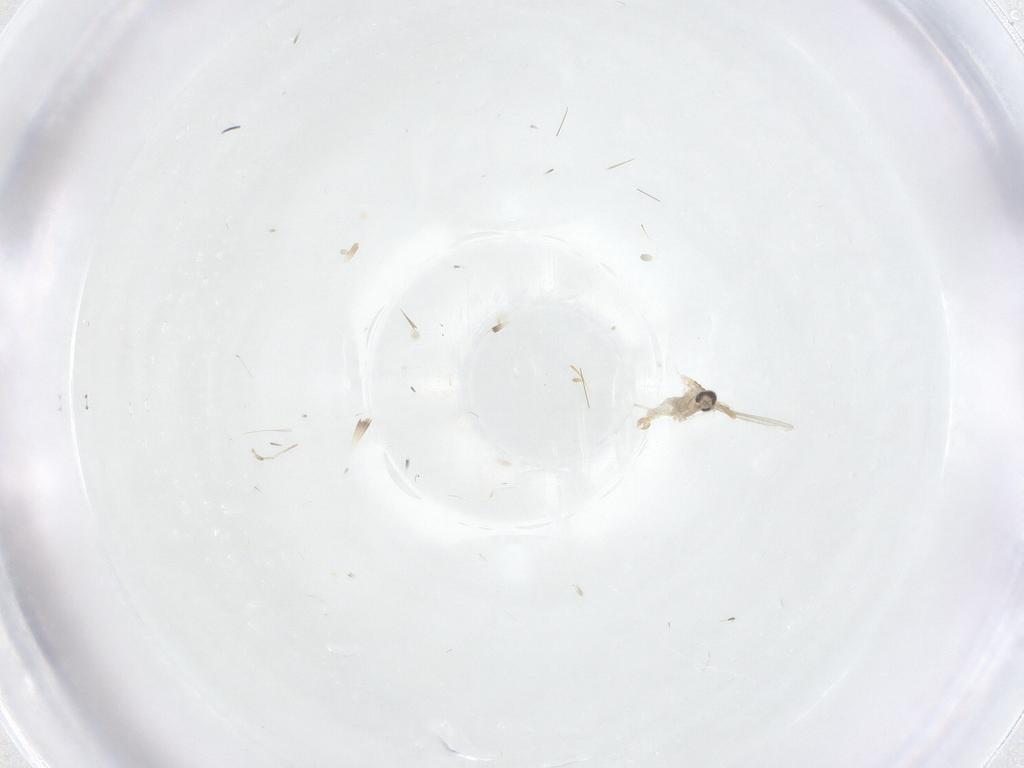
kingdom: Animalia
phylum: Arthropoda
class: Insecta
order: Diptera
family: Cecidomyiidae
